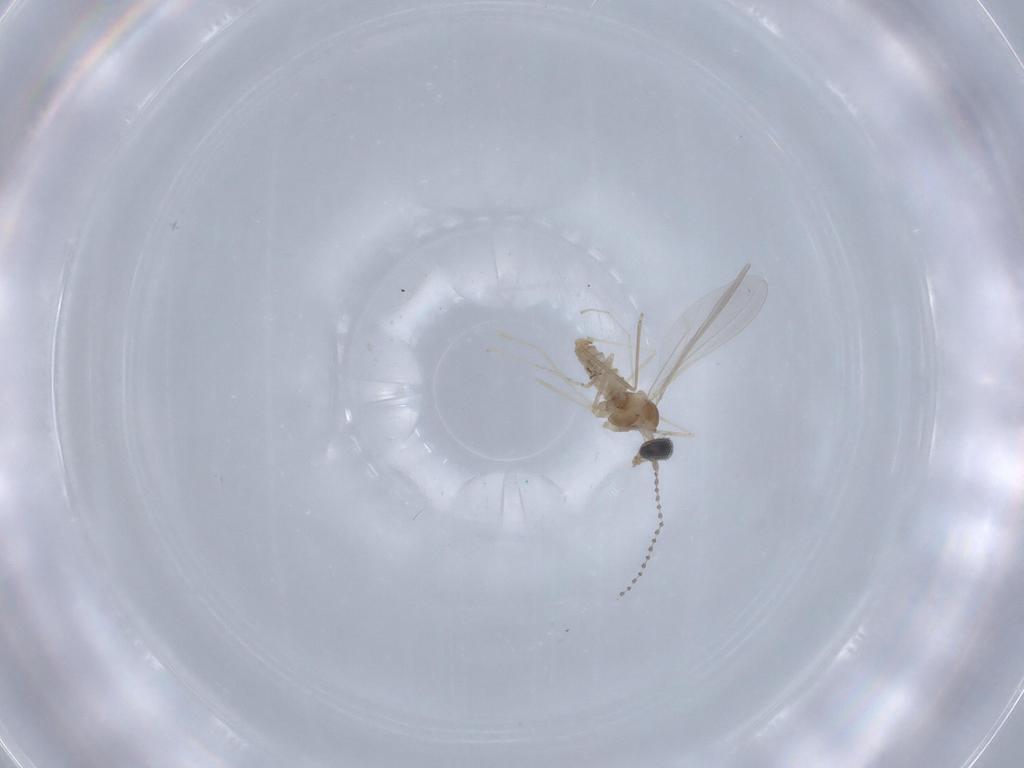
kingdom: Animalia
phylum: Arthropoda
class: Insecta
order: Diptera
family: Cecidomyiidae
